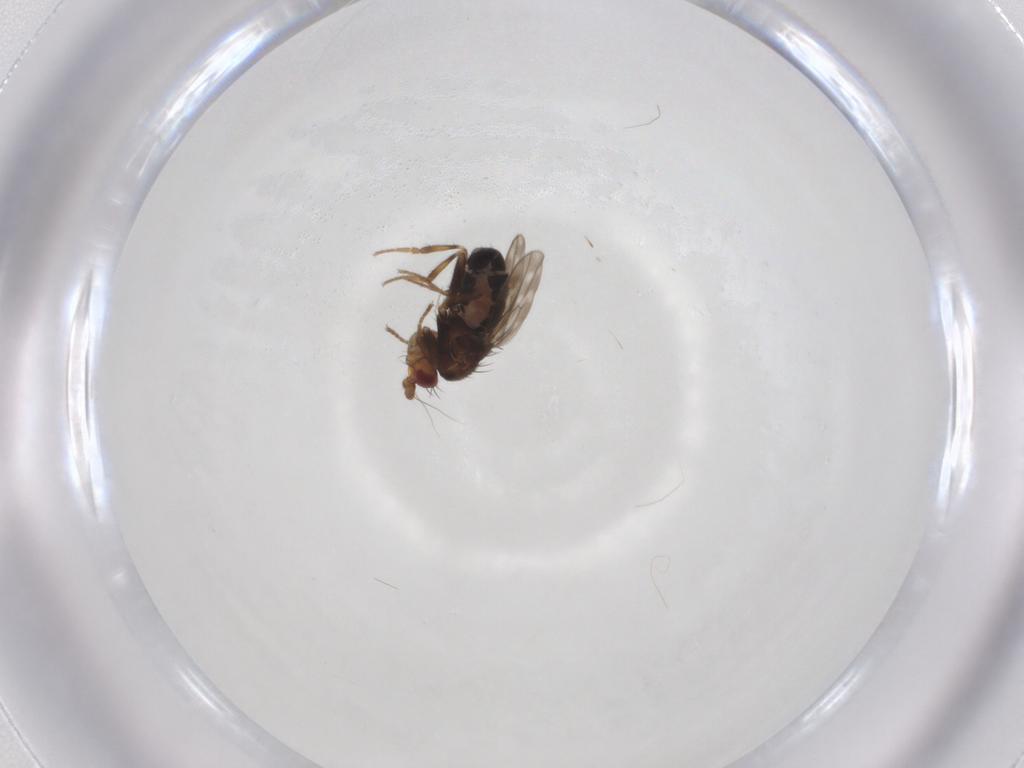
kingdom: Animalia
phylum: Arthropoda
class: Insecta
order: Diptera
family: Sphaeroceridae
